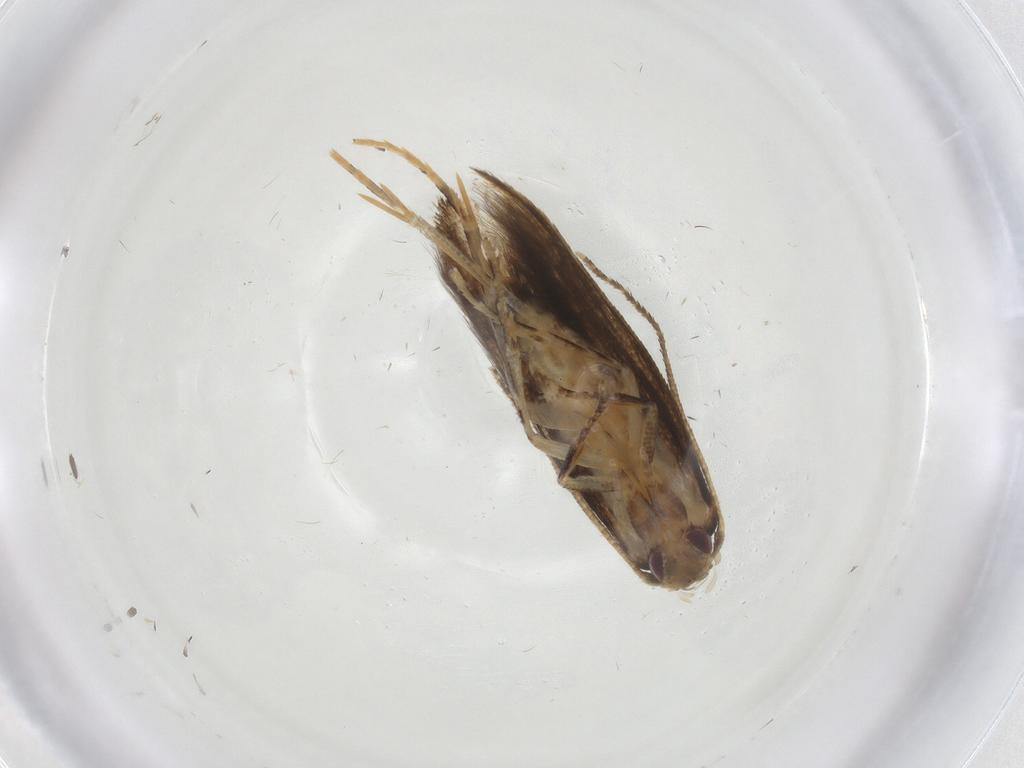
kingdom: Animalia
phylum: Arthropoda
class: Insecta
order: Lepidoptera
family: Momphidae
